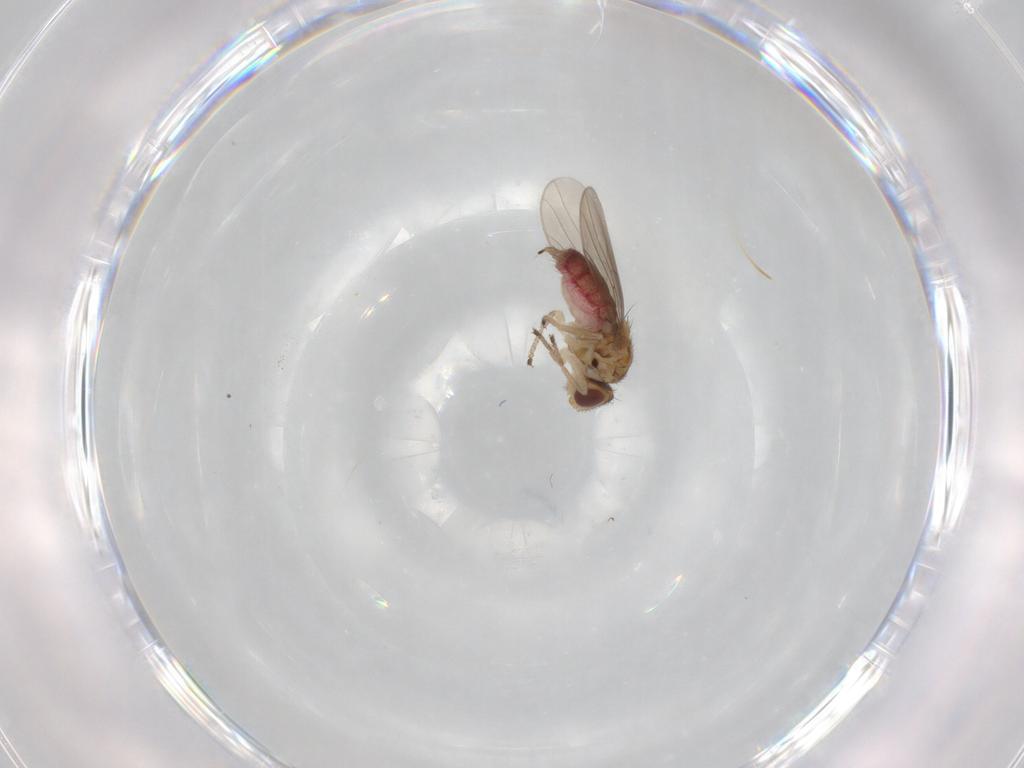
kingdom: Animalia
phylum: Arthropoda
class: Insecta
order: Diptera
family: Chloropidae
